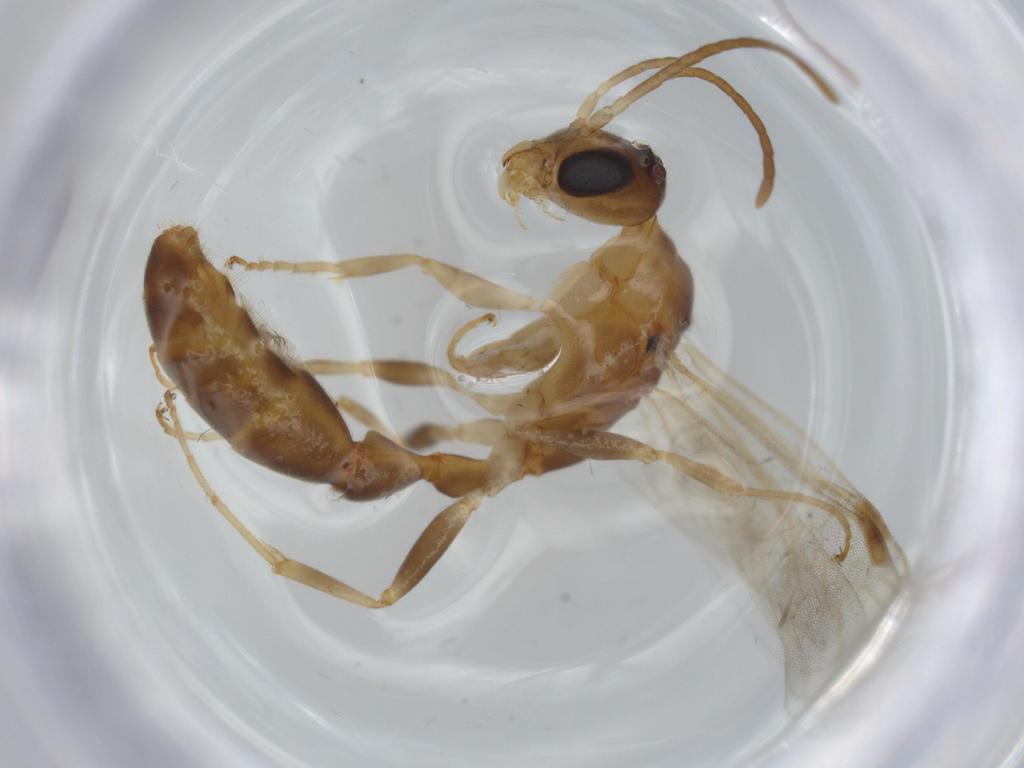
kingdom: Animalia
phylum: Arthropoda
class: Insecta
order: Hymenoptera
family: Formicidae
